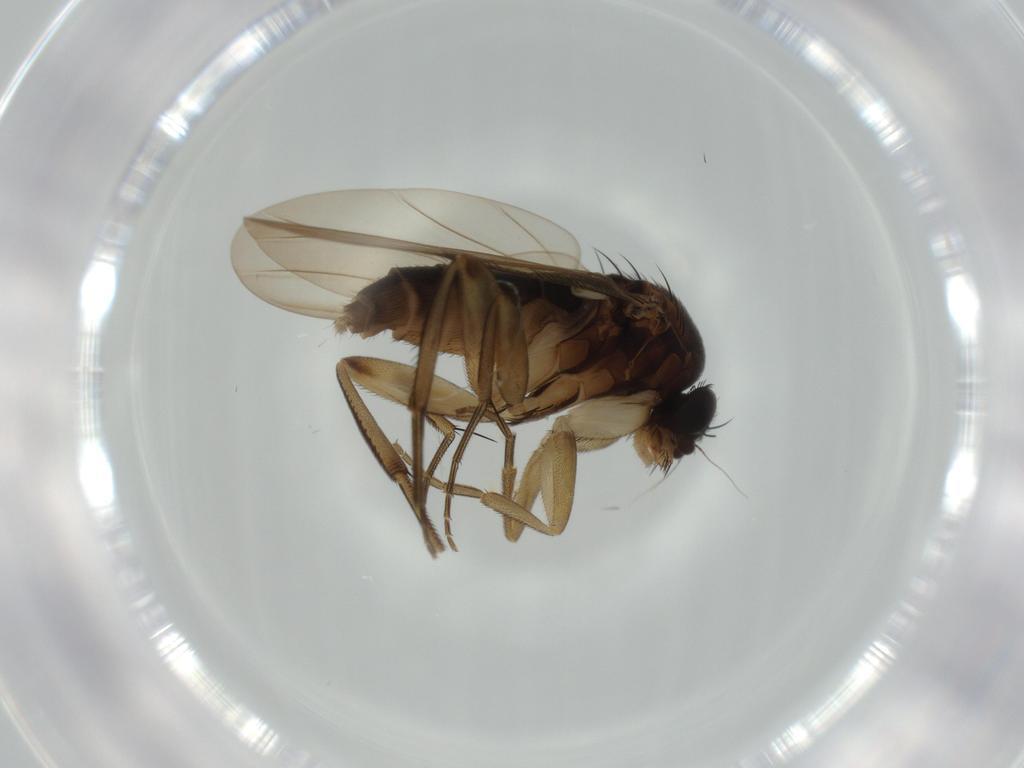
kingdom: Animalia
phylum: Arthropoda
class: Insecta
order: Diptera
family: Phoridae
